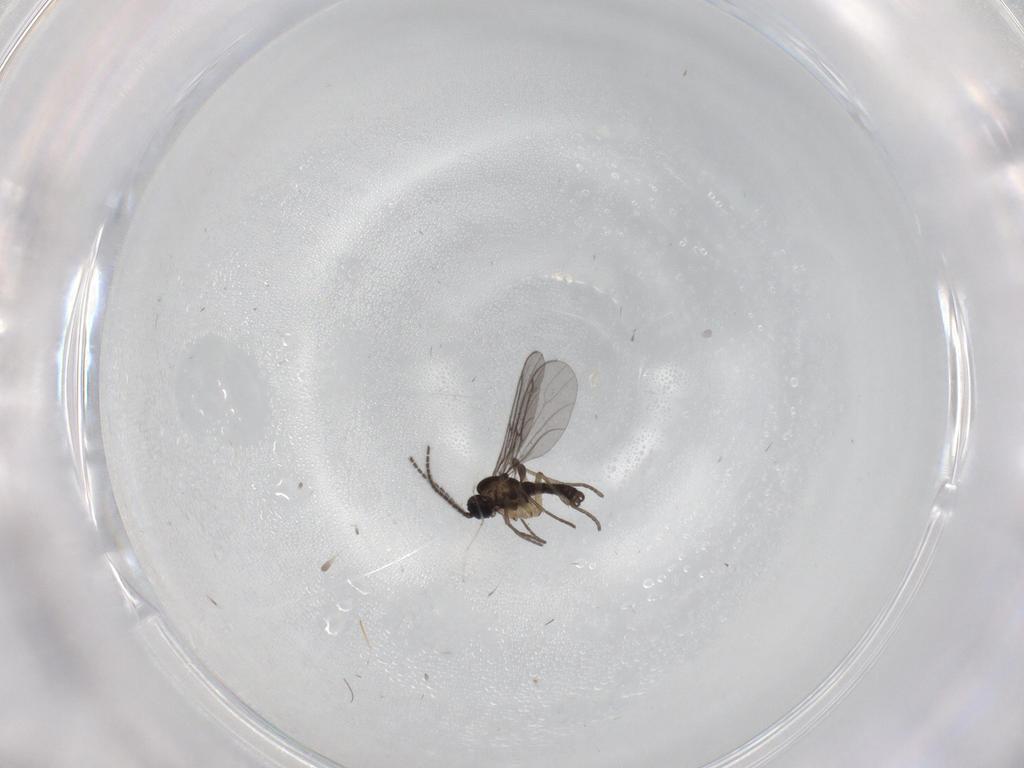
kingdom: Animalia
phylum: Arthropoda
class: Insecta
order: Diptera
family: Sciaridae
